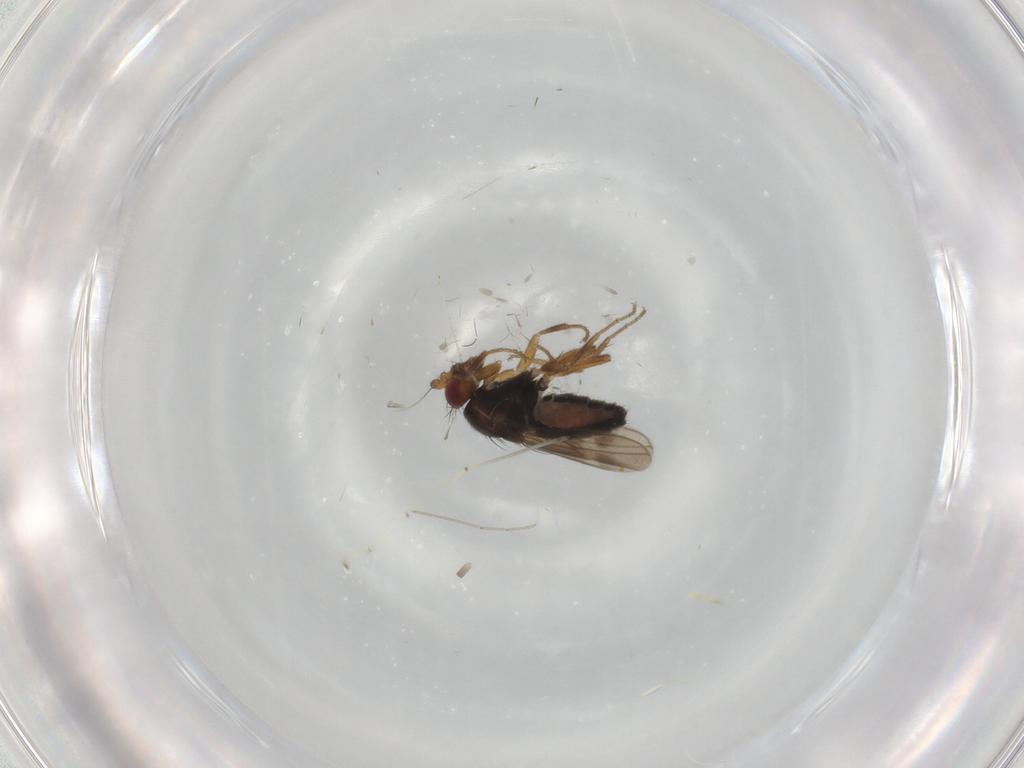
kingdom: Animalia
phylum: Arthropoda
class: Insecta
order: Diptera
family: Sphaeroceridae
